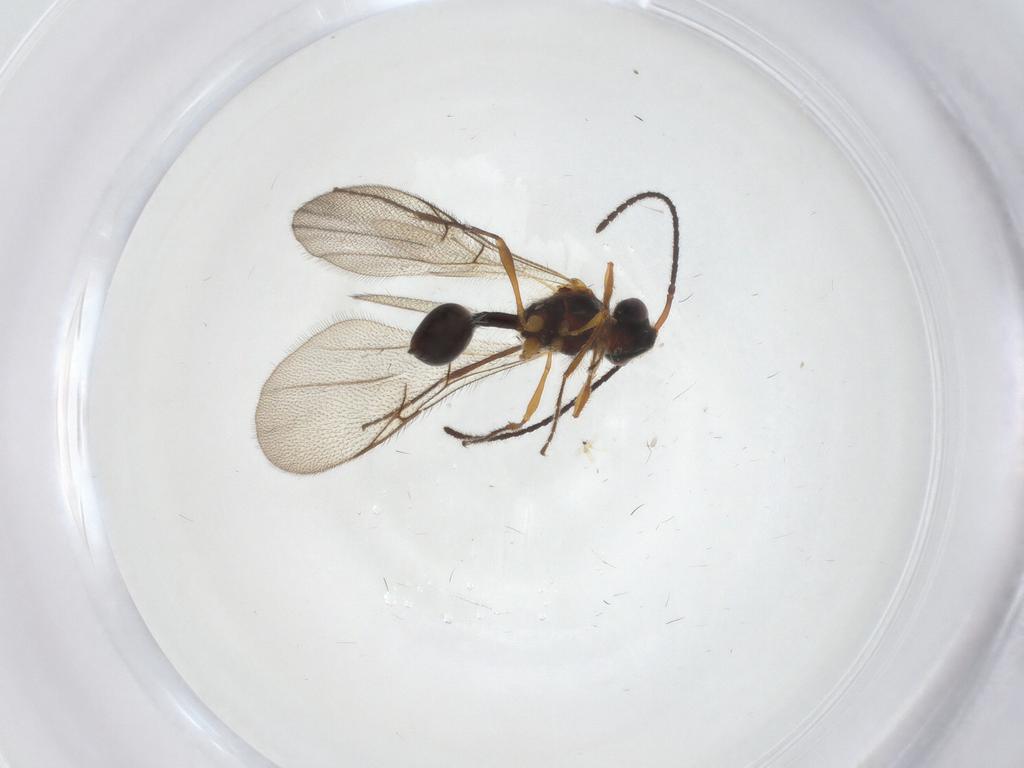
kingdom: Animalia
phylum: Arthropoda
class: Insecta
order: Hymenoptera
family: Diapriidae
